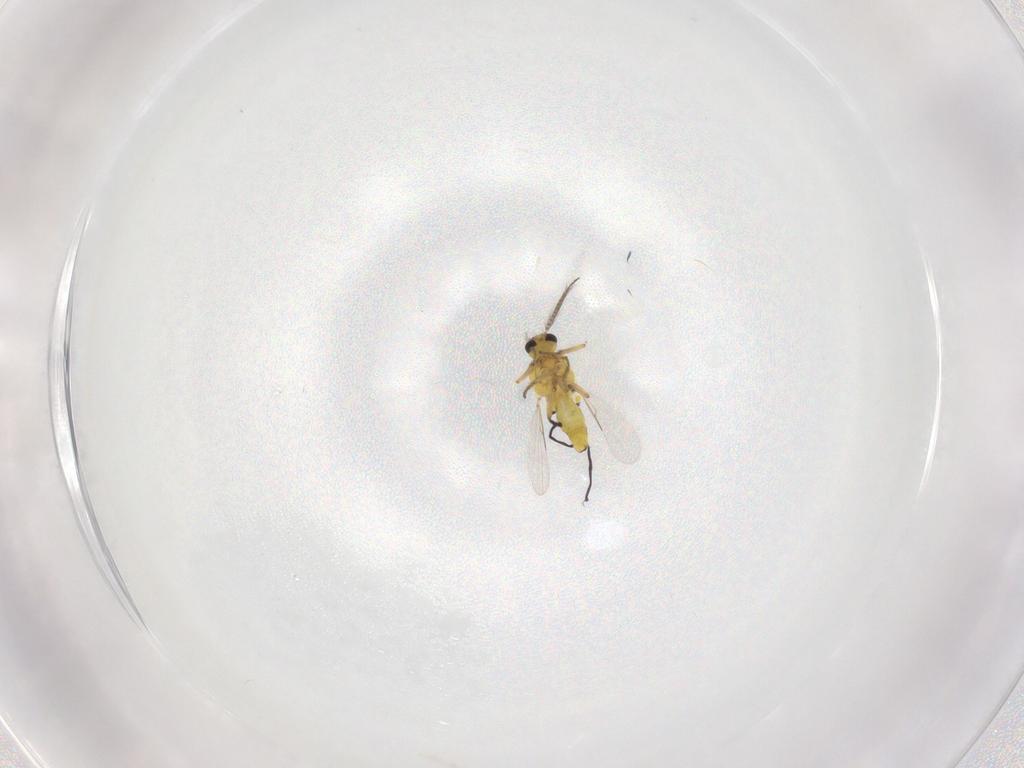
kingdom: Animalia
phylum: Arthropoda
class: Insecta
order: Diptera
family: Ceratopogonidae
